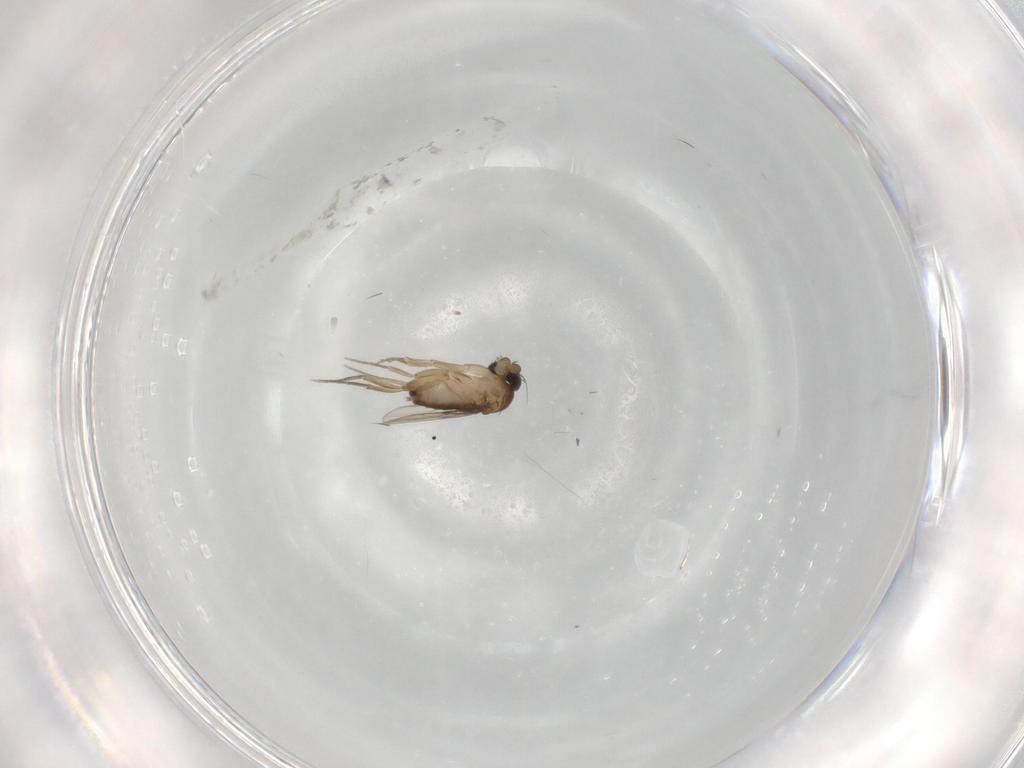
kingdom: Animalia
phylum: Arthropoda
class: Insecta
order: Diptera
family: Phoridae
